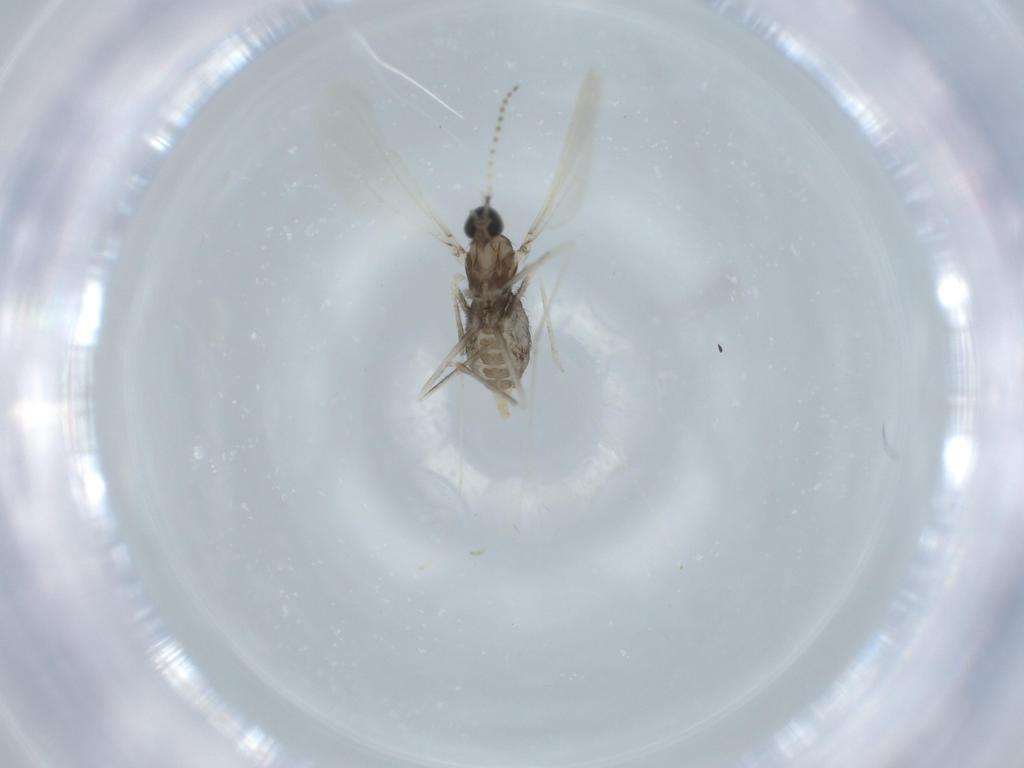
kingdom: Animalia
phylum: Arthropoda
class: Insecta
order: Diptera
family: Cecidomyiidae
